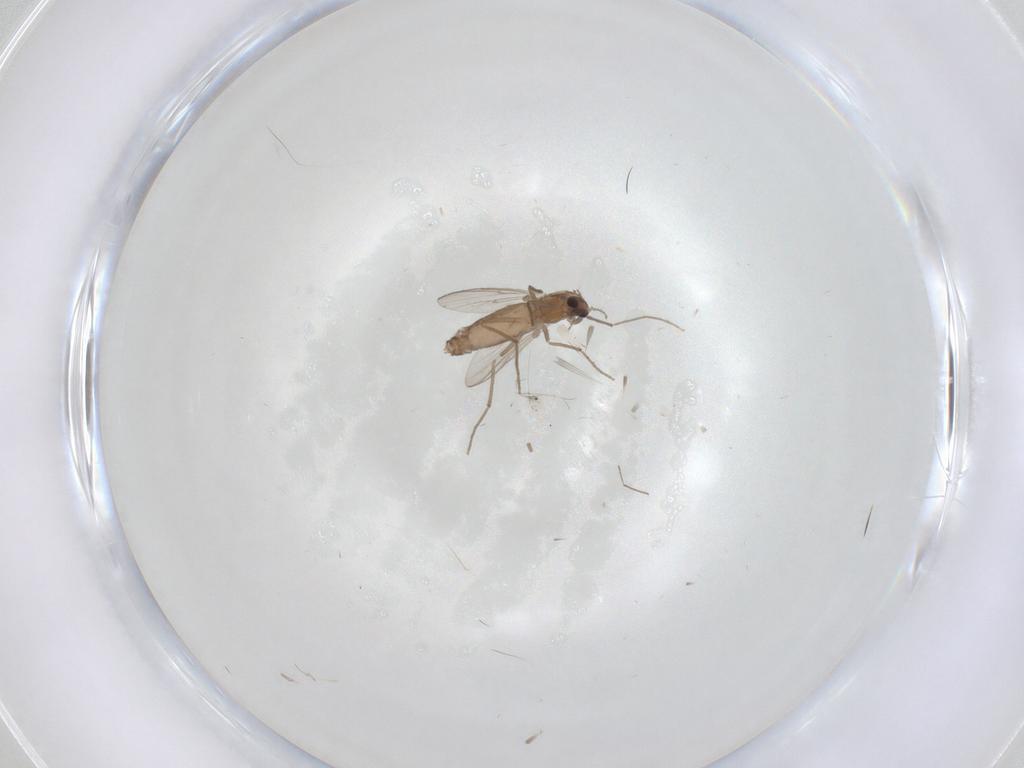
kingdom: Animalia
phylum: Arthropoda
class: Insecta
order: Diptera
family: Chironomidae
